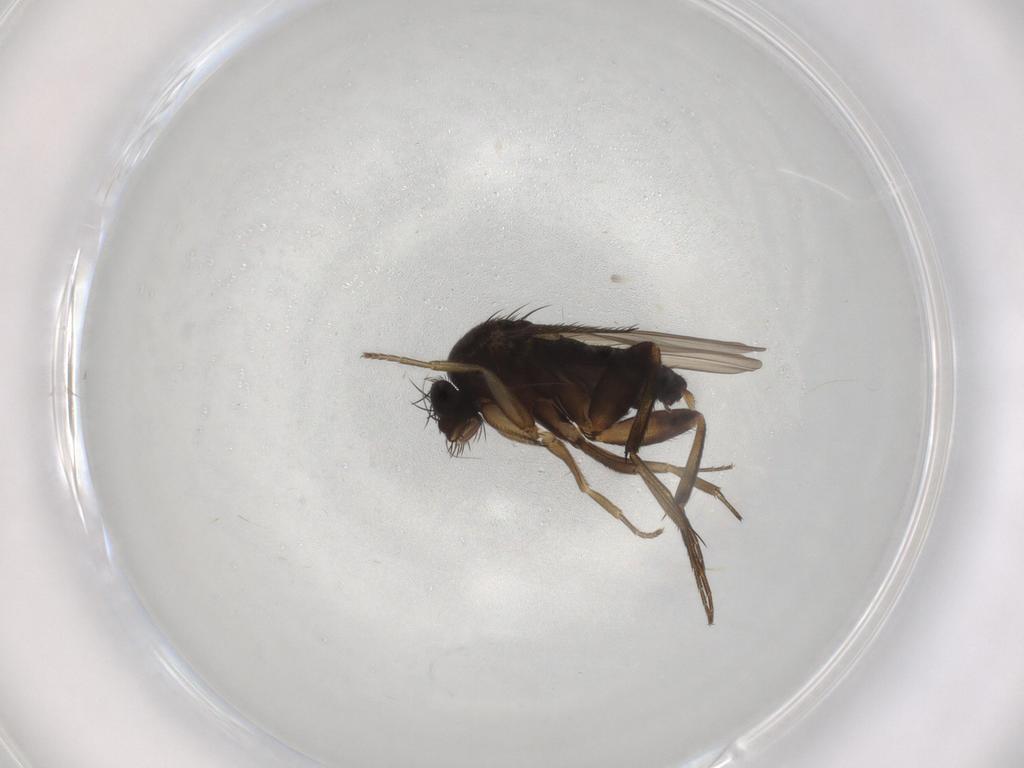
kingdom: Animalia
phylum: Arthropoda
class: Insecta
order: Diptera
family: Phoridae
